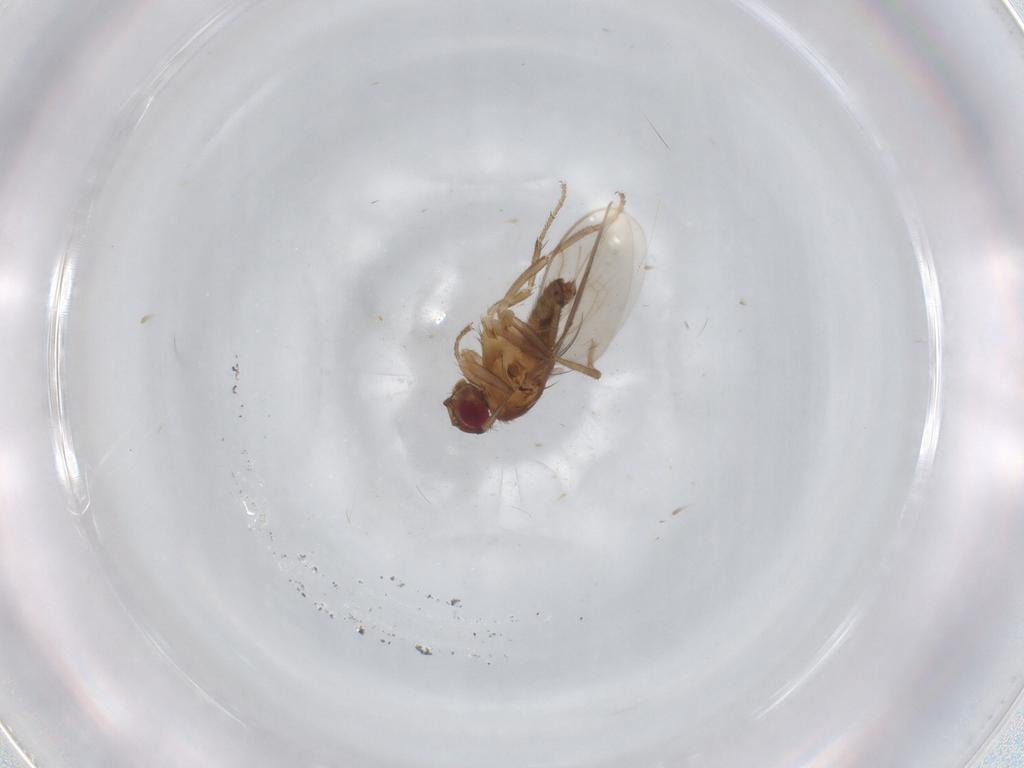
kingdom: Animalia
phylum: Arthropoda
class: Insecta
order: Diptera
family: Sphaeroceridae
